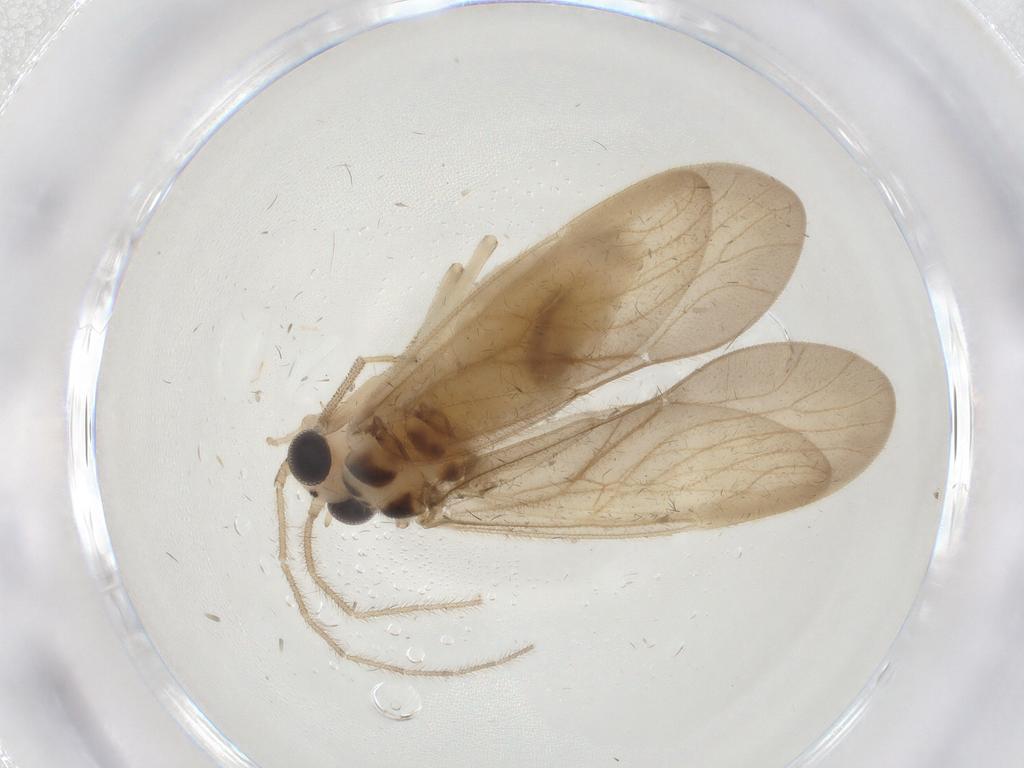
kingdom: Animalia
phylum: Arthropoda
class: Insecta
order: Psocodea
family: Amphipsocidae
